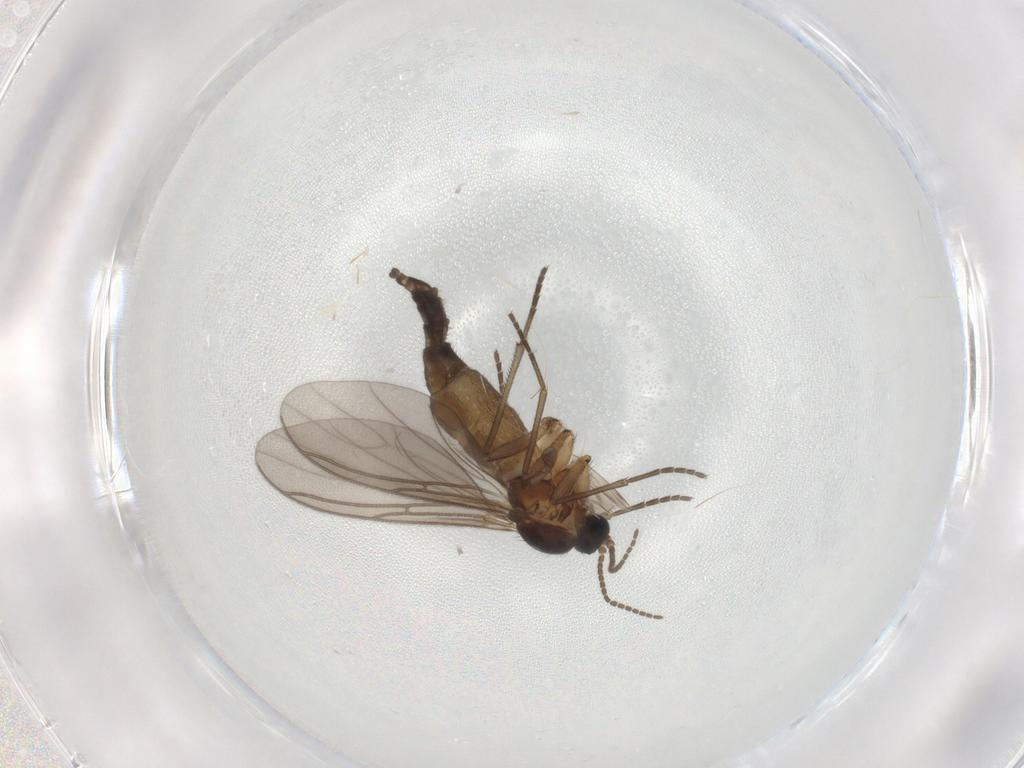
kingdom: Animalia
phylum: Arthropoda
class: Insecta
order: Diptera
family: Sciaridae
